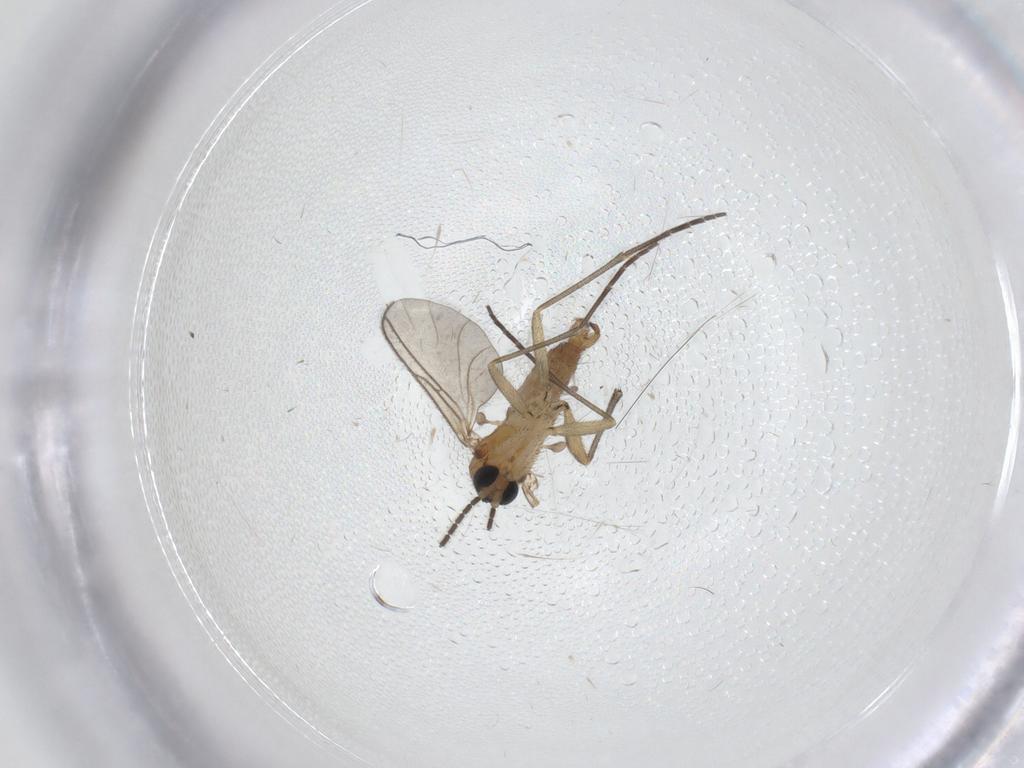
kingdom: Animalia
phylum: Arthropoda
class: Insecta
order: Diptera
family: Sciaridae
